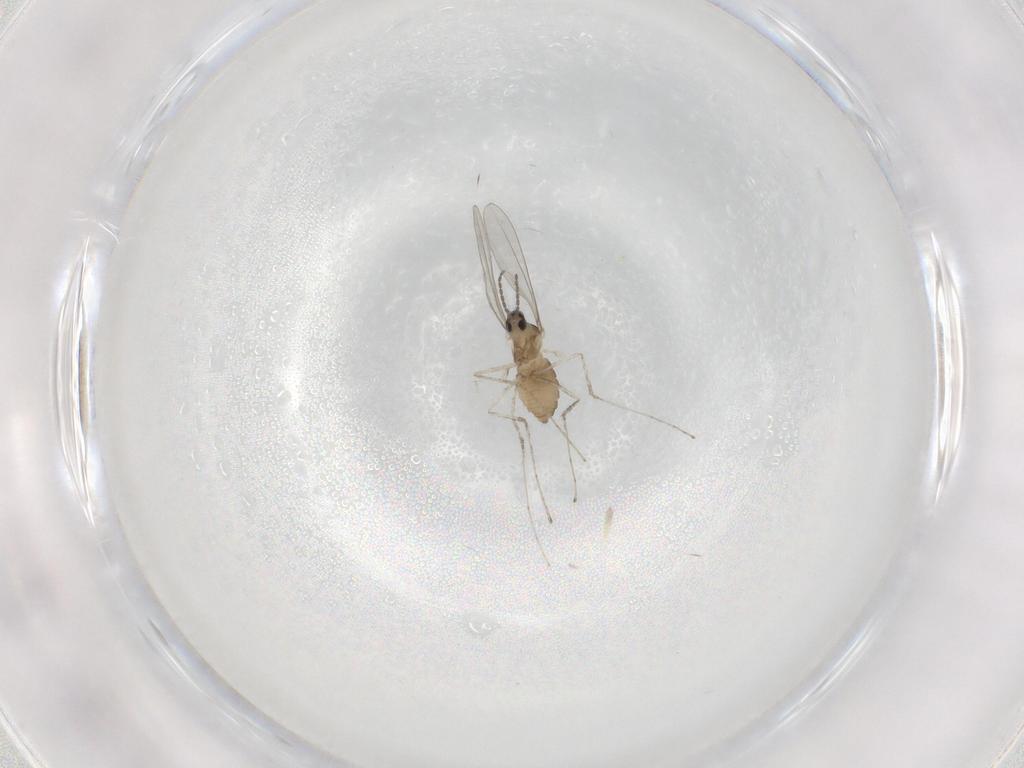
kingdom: Animalia
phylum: Arthropoda
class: Insecta
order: Diptera
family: Cecidomyiidae
